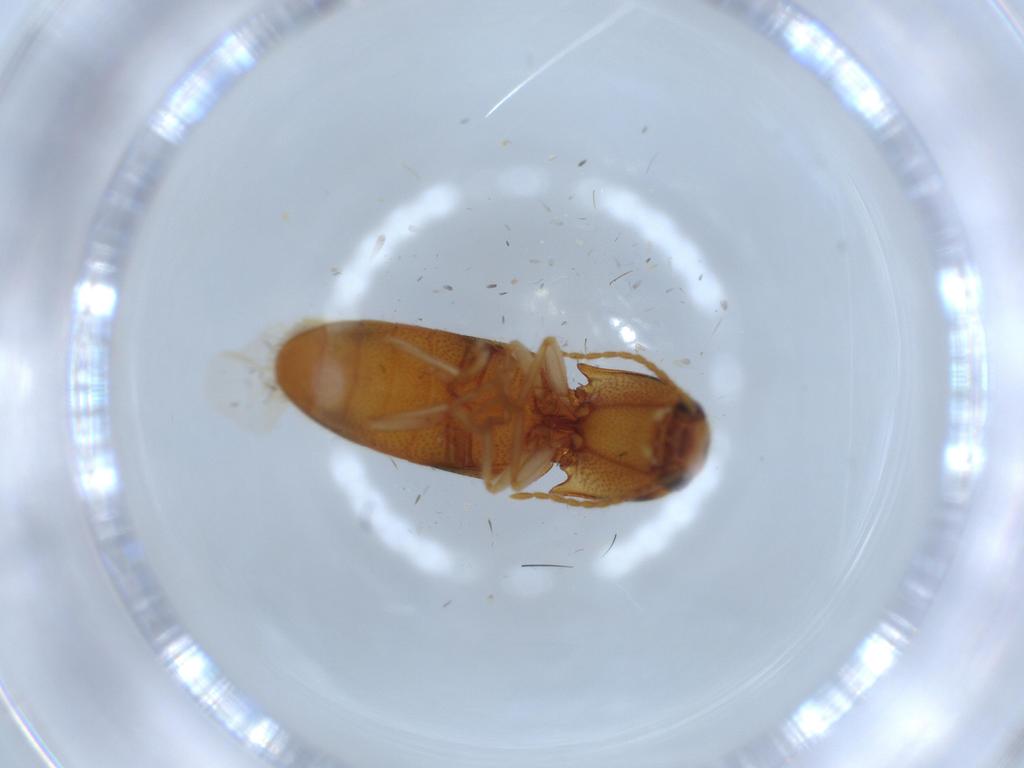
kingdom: Animalia
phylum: Arthropoda
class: Insecta
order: Coleoptera
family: Elateridae
